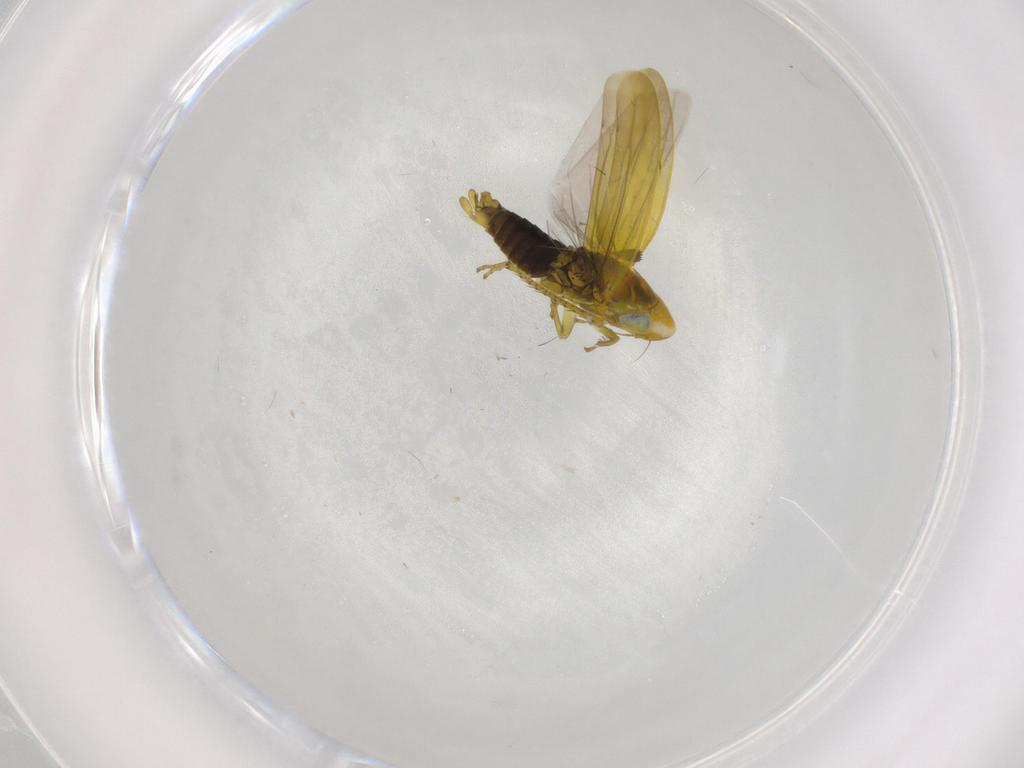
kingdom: Animalia
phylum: Arthropoda
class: Insecta
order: Hemiptera
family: Cicadellidae
